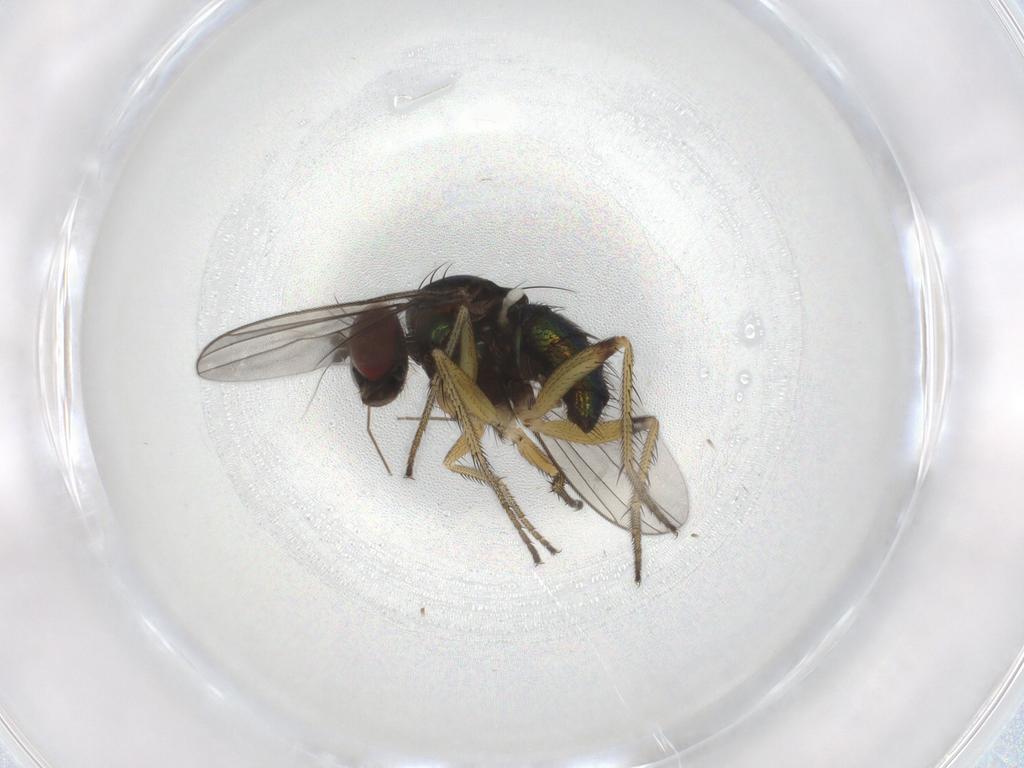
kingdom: Animalia
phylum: Arthropoda
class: Insecta
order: Diptera
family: Dolichopodidae
